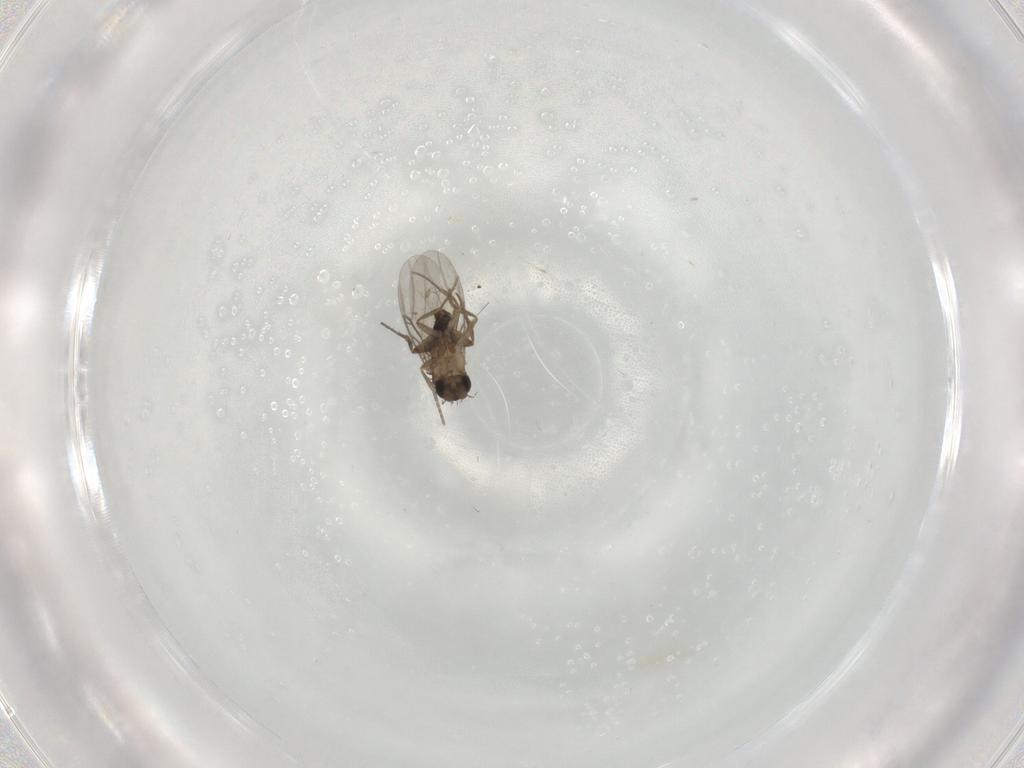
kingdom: Animalia
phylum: Arthropoda
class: Insecta
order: Diptera
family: Phoridae
